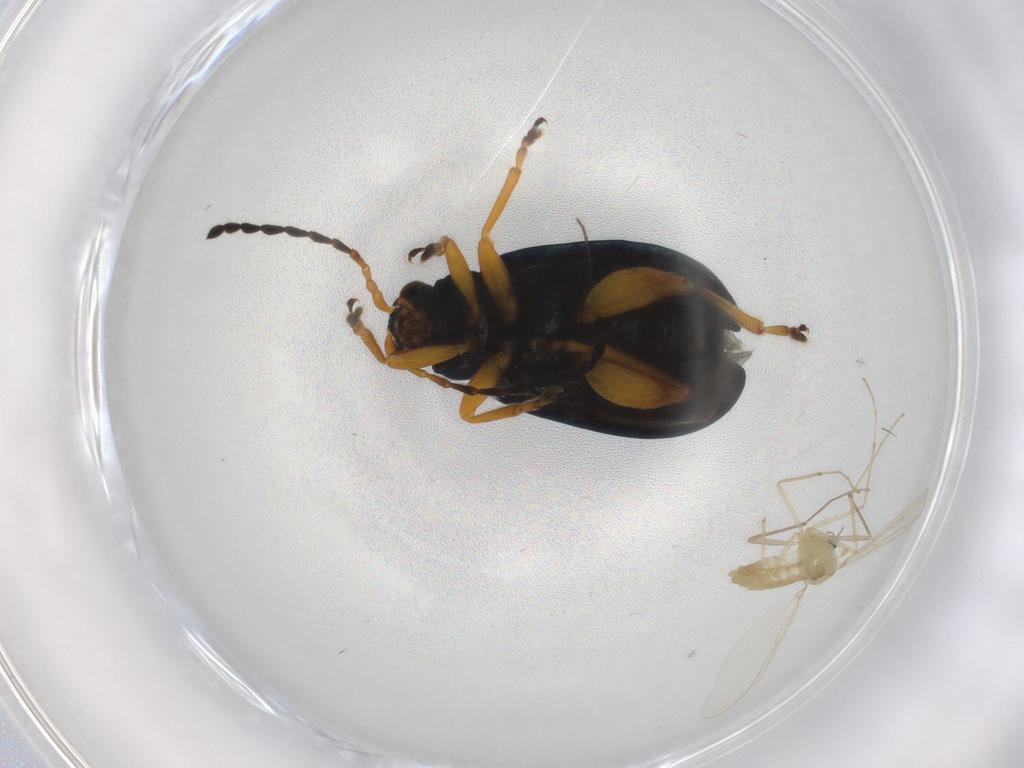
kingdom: Animalia
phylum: Arthropoda
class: Insecta
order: Coleoptera
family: Chrysomelidae
